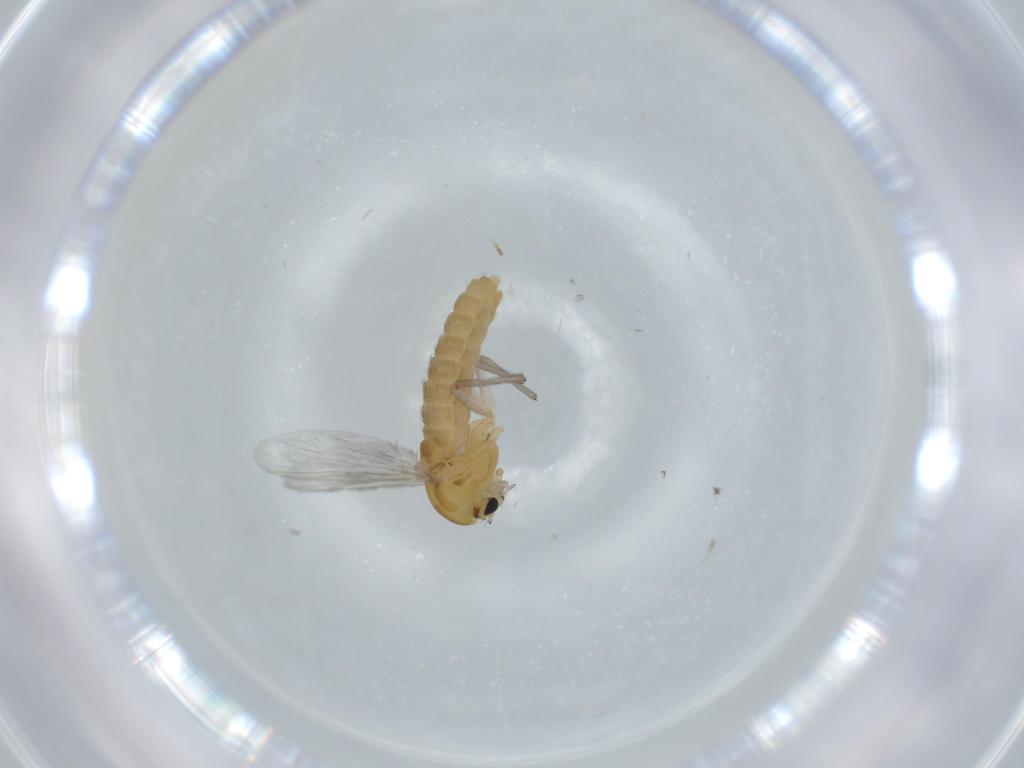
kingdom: Animalia
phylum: Arthropoda
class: Insecta
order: Diptera
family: Chironomidae
